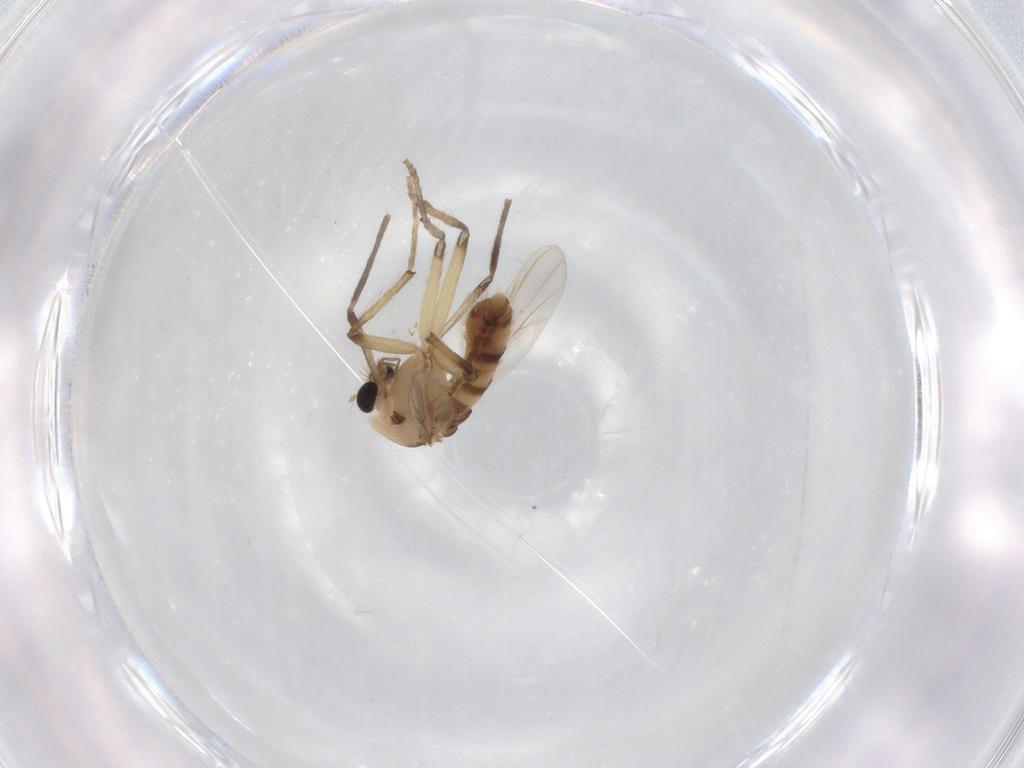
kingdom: Animalia
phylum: Arthropoda
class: Insecta
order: Diptera
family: Chironomidae
